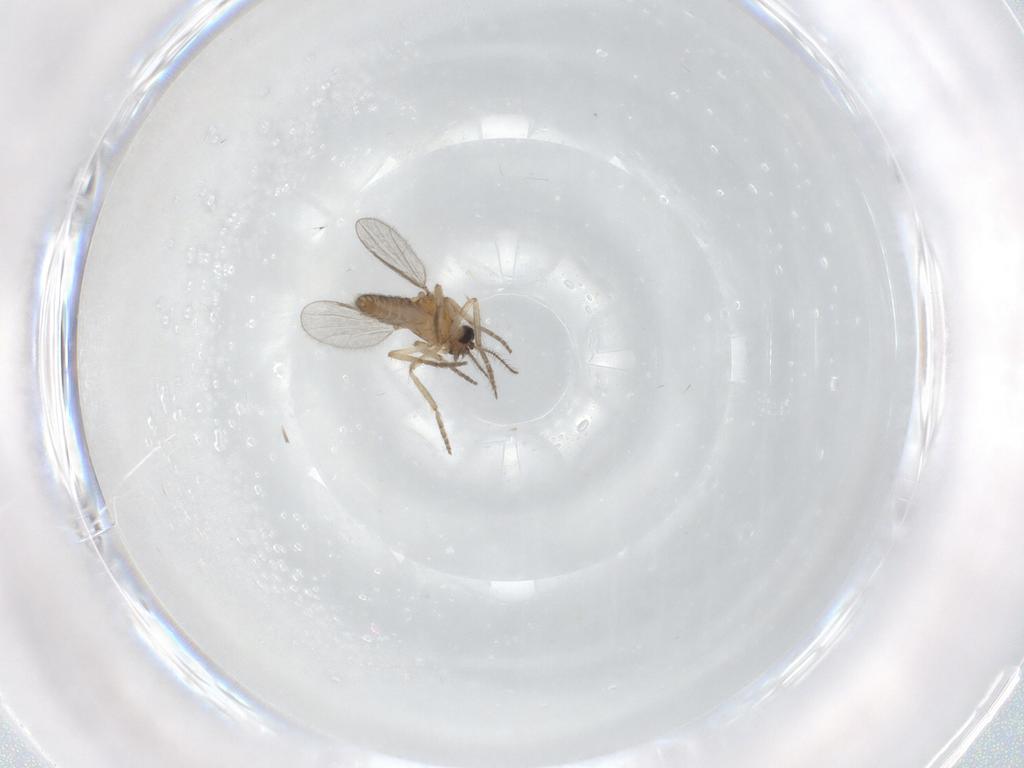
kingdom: Animalia
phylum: Arthropoda
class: Insecta
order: Diptera
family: Ceratopogonidae
